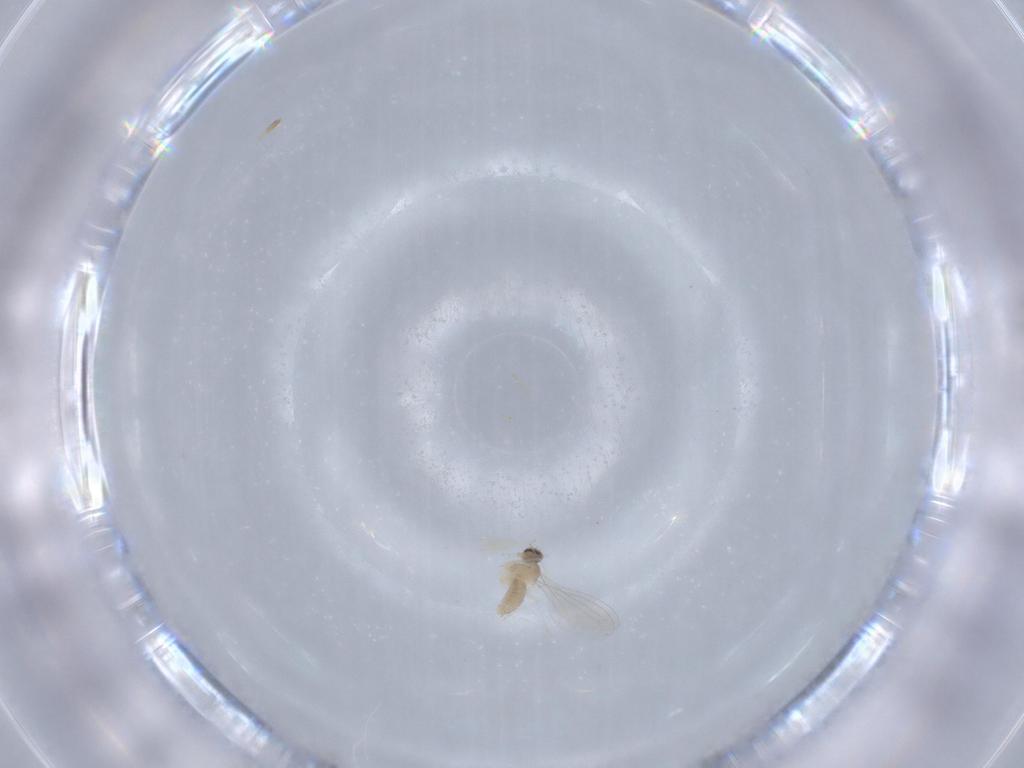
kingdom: Animalia
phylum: Arthropoda
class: Insecta
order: Diptera
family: Cecidomyiidae
